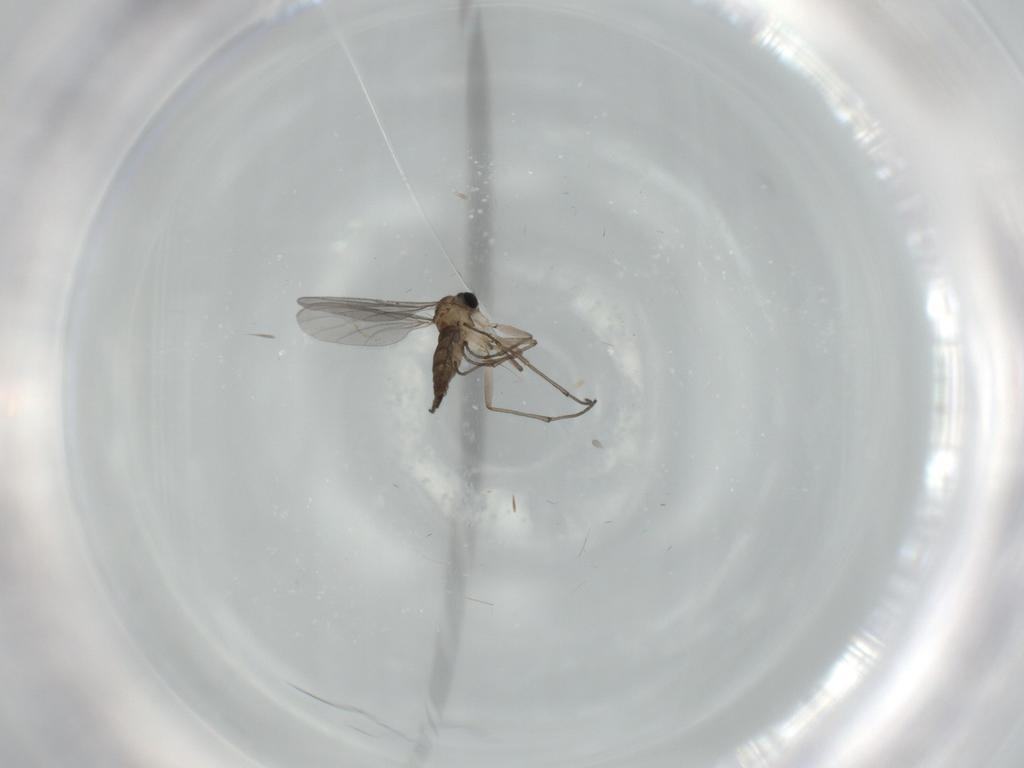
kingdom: Animalia
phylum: Arthropoda
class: Insecta
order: Diptera
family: Sciaridae
